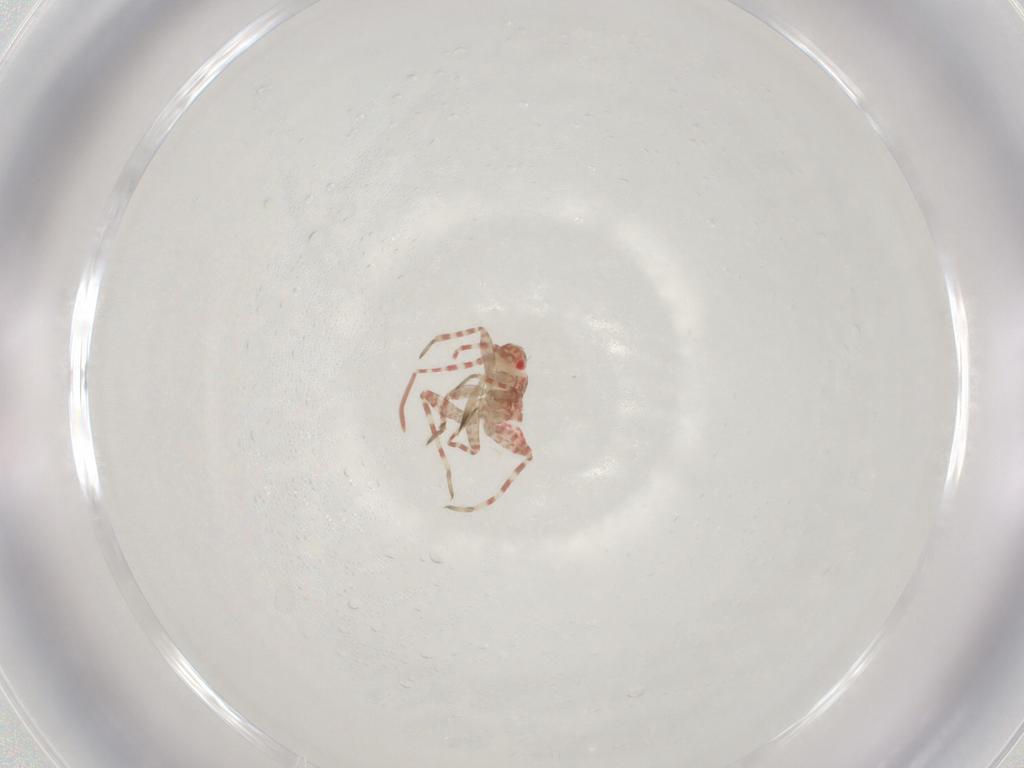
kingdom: Animalia
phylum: Arthropoda
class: Insecta
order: Hemiptera
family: Miridae
